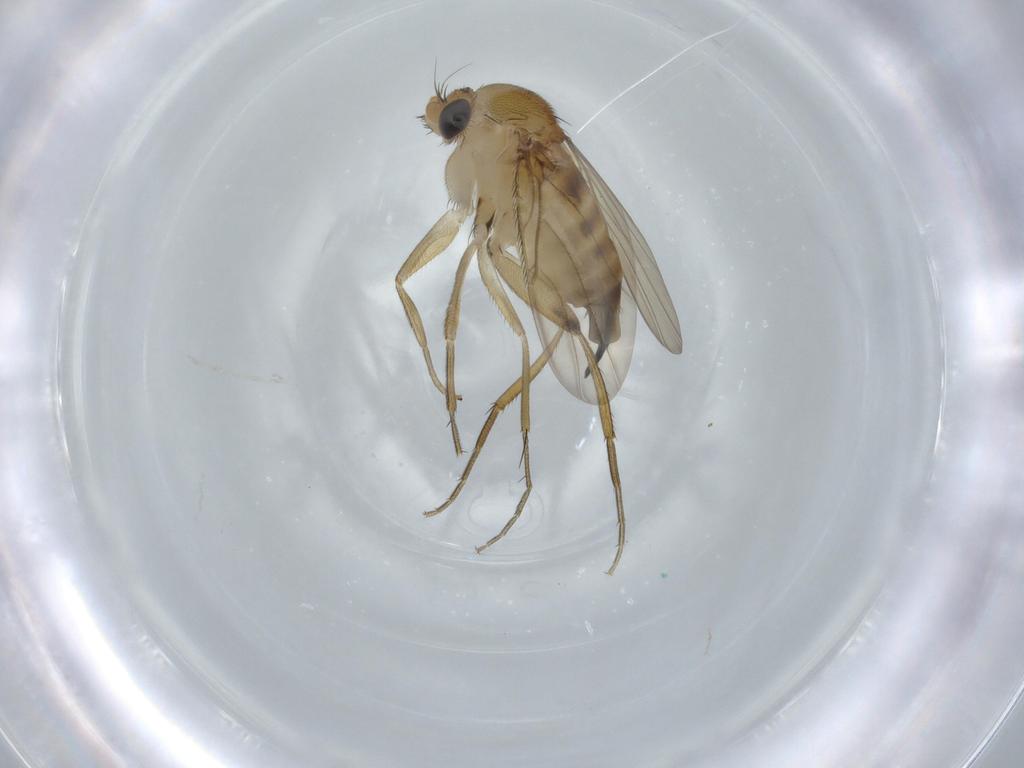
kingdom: Animalia
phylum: Arthropoda
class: Insecta
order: Diptera
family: Phoridae
